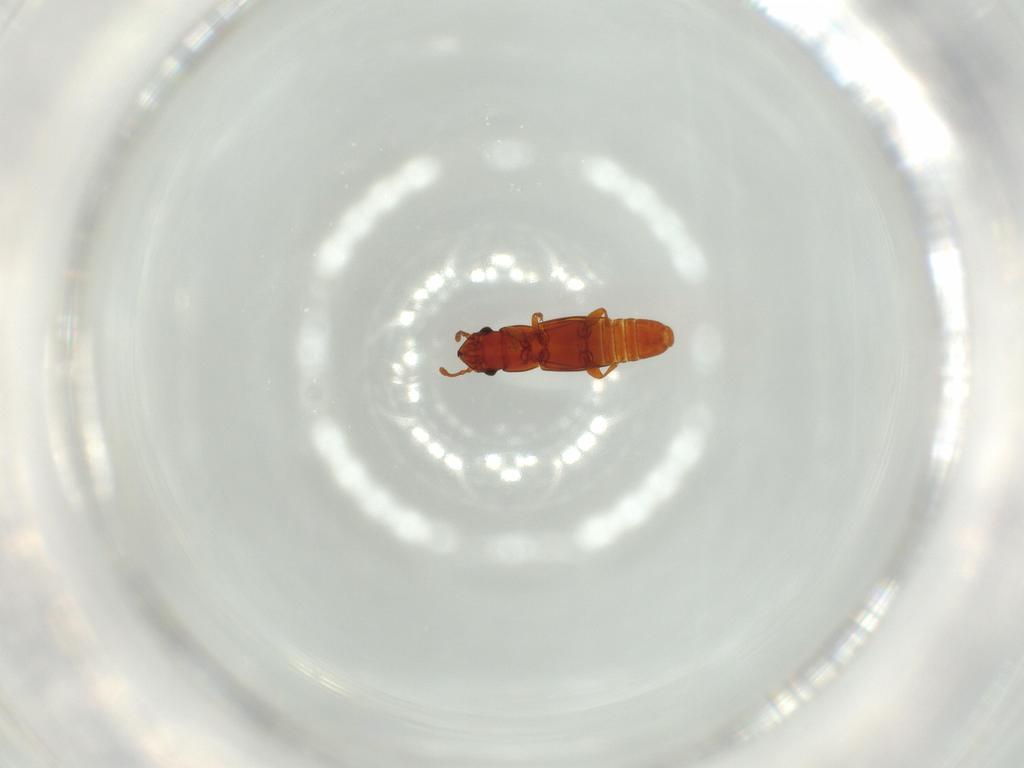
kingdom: Animalia
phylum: Arthropoda
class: Insecta
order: Coleoptera
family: Smicripidae
